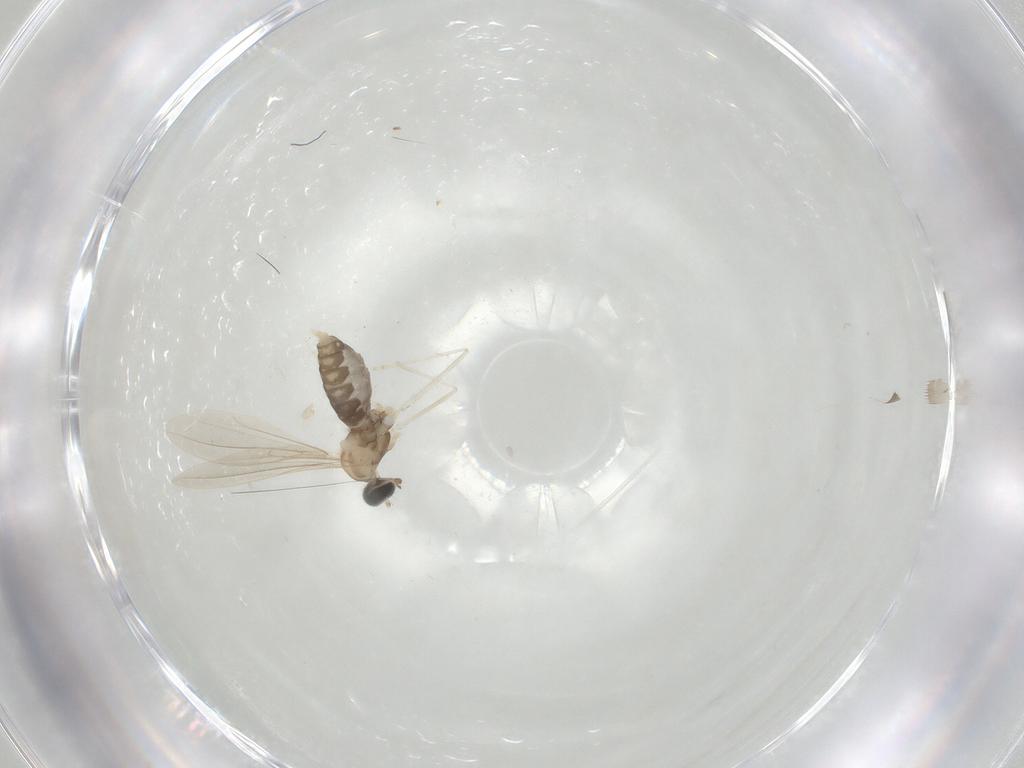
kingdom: Animalia
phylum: Arthropoda
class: Insecta
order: Diptera
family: Cecidomyiidae
